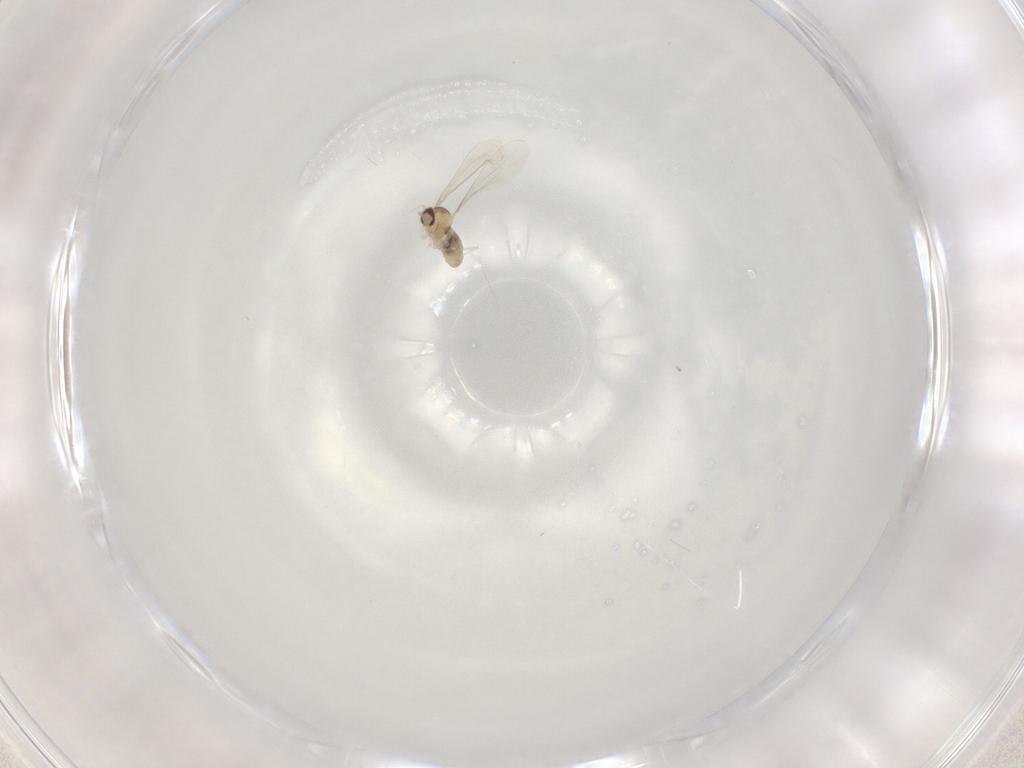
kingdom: Animalia
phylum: Arthropoda
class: Insecta
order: Diptera
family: Cecidomyiidae
